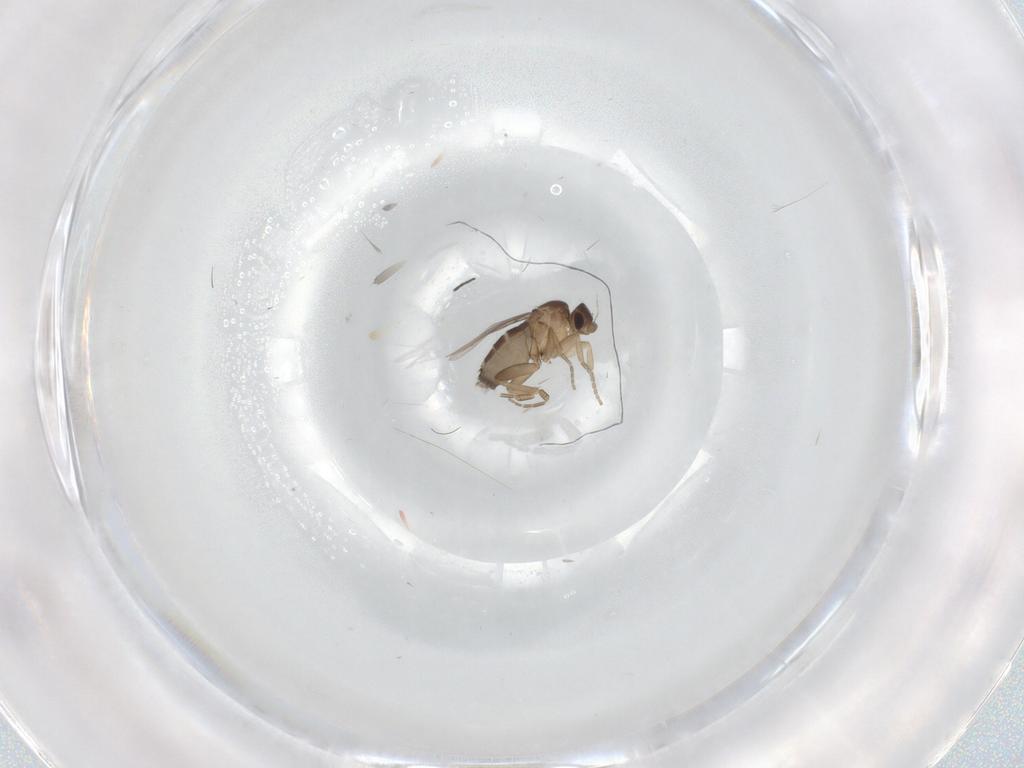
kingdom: Animalia
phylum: Arthropoda
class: Insecta
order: Diptera
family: Phoridae
